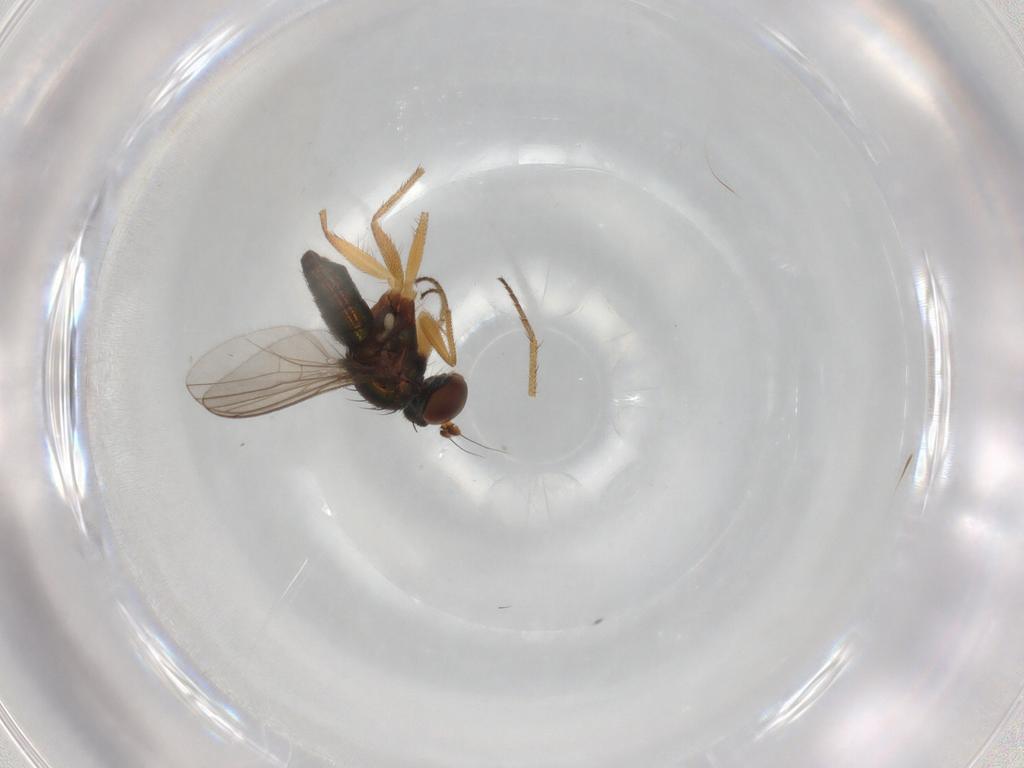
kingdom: Animalia
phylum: Arthropoda
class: Insecta
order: Diptera
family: Dolichopodidae
